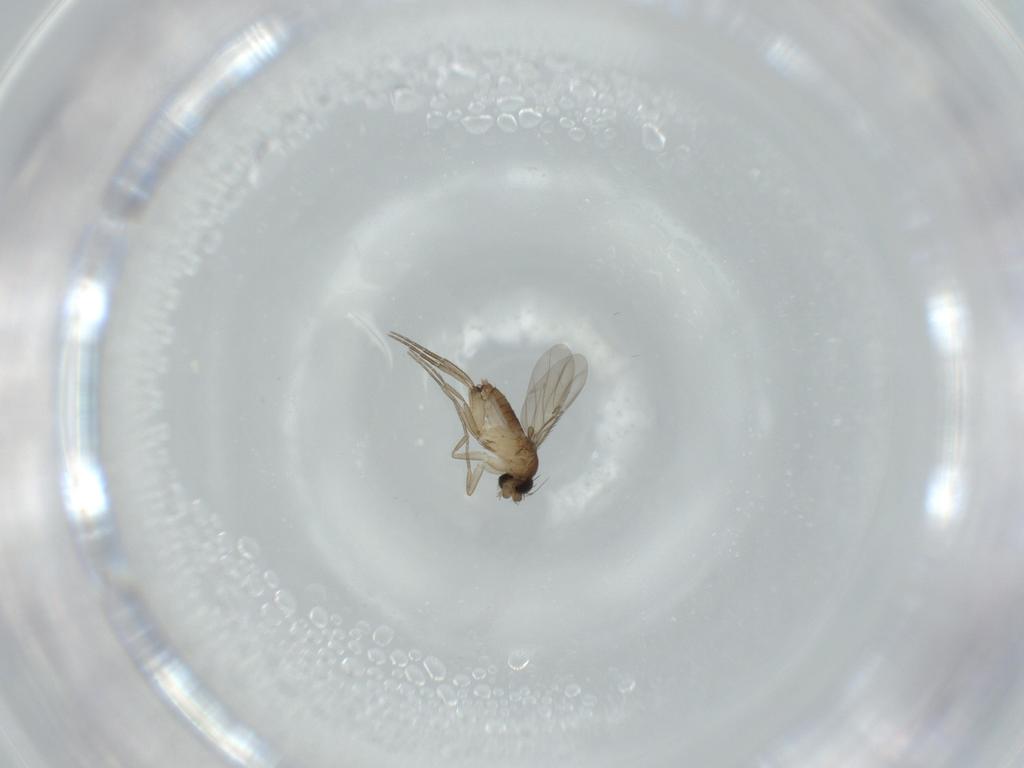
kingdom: Animalia
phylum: Arthropoda
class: Insecta
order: Diptera
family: Phoridae
